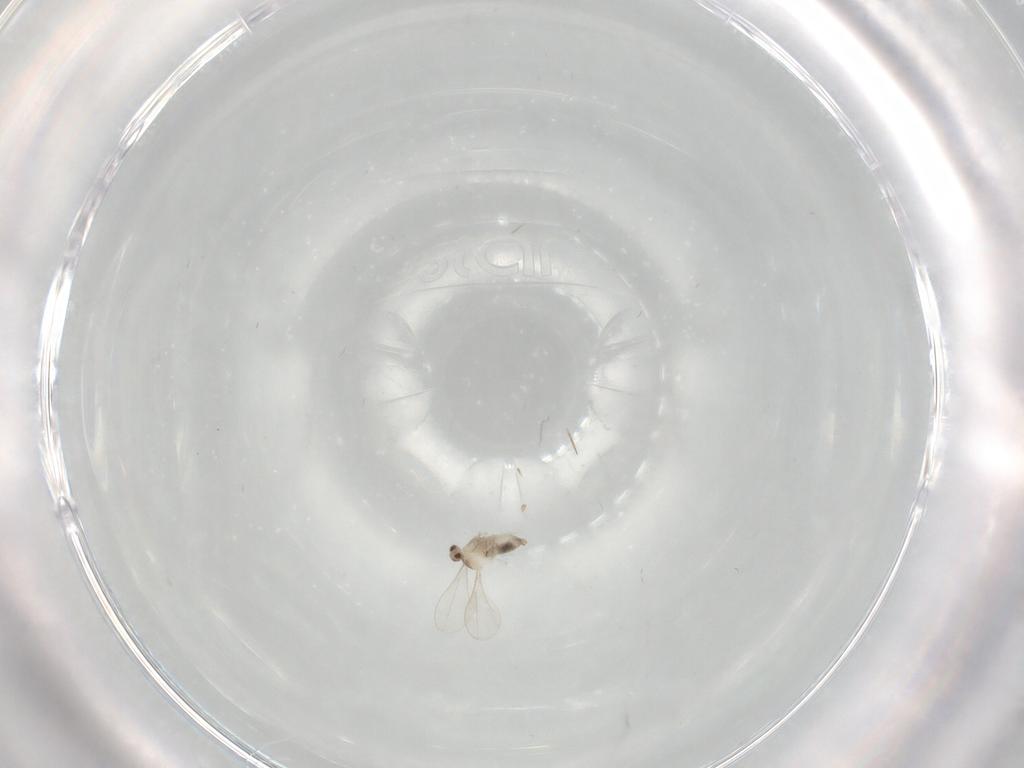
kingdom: Animalia
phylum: Arthropoda
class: Insecta
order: Diptera
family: Cecidomyiidae
